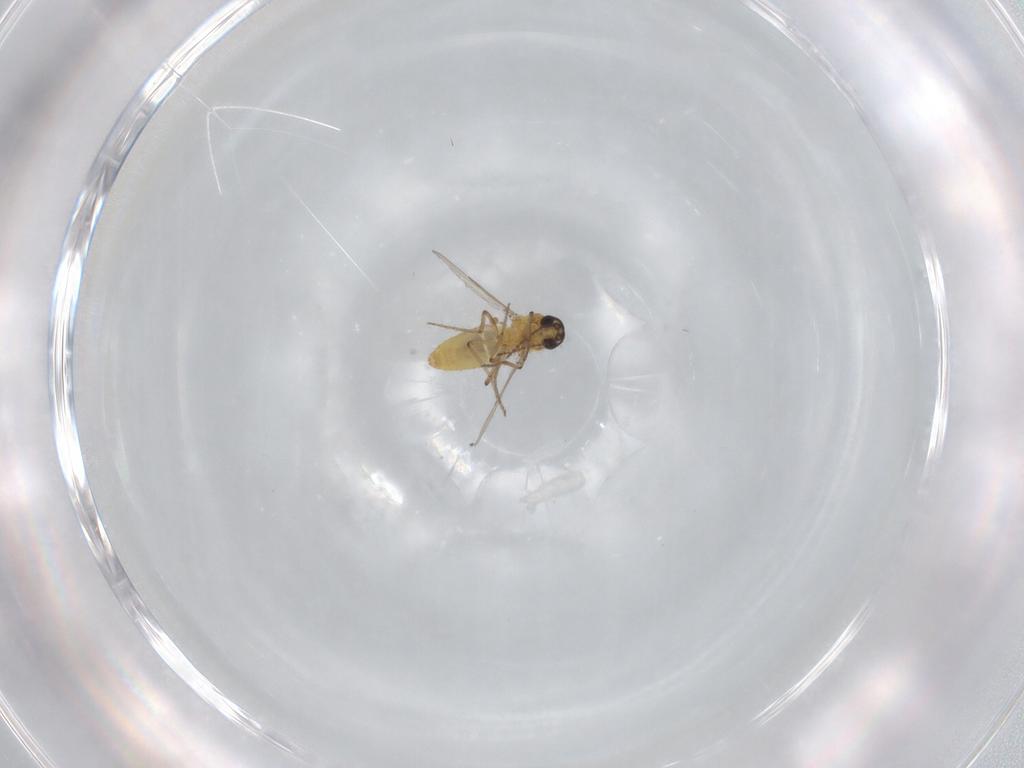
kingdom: Animalia
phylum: Arthropoda
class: Insecta
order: Diptera
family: Ceratopogonidae
